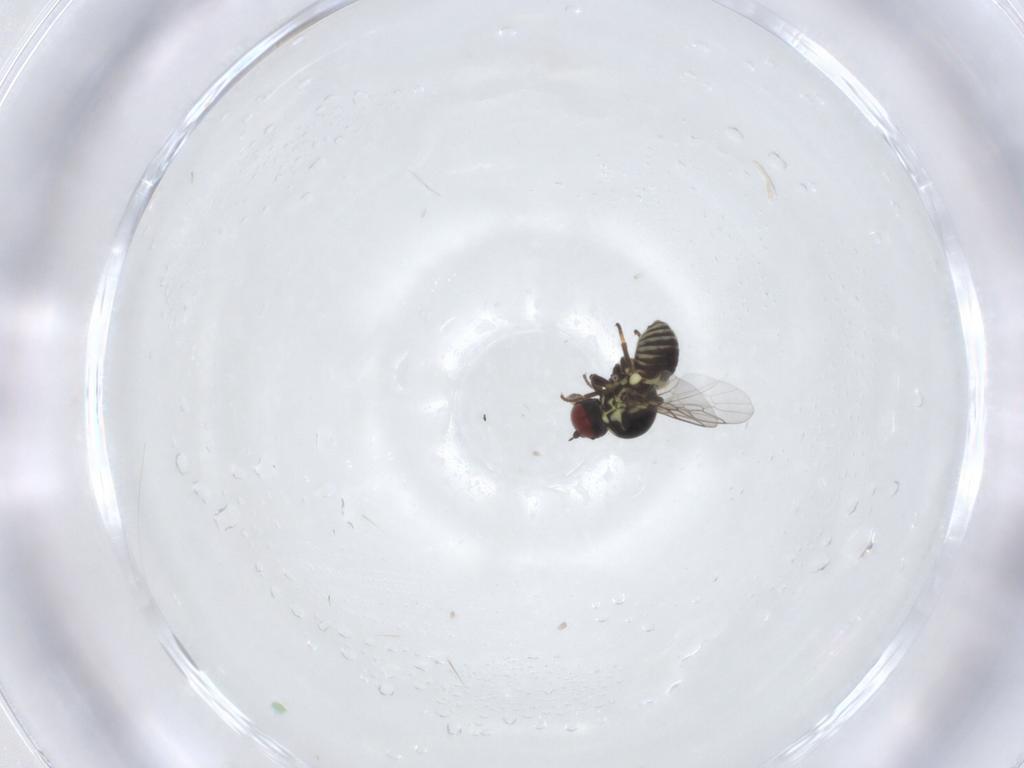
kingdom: Animalia
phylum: Arthropoda
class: Insecta
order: Diptera
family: Mythicomyiidae
